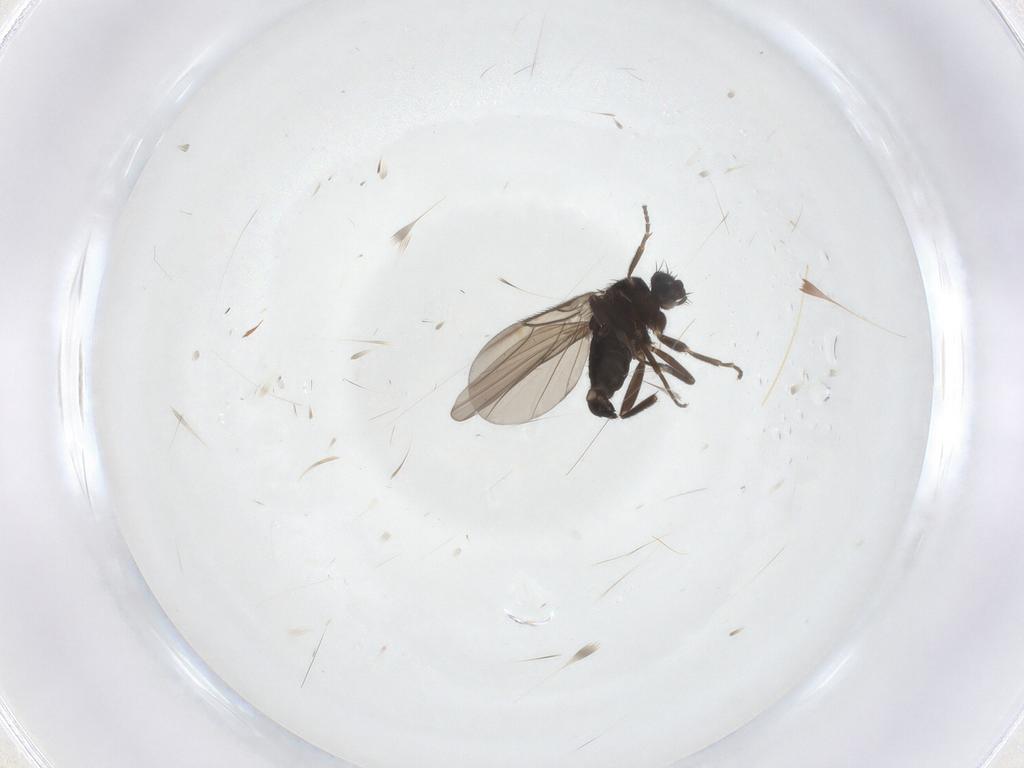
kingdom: Animalia
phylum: Arthropoda
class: Insecta
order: Diptera
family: Phoridae
